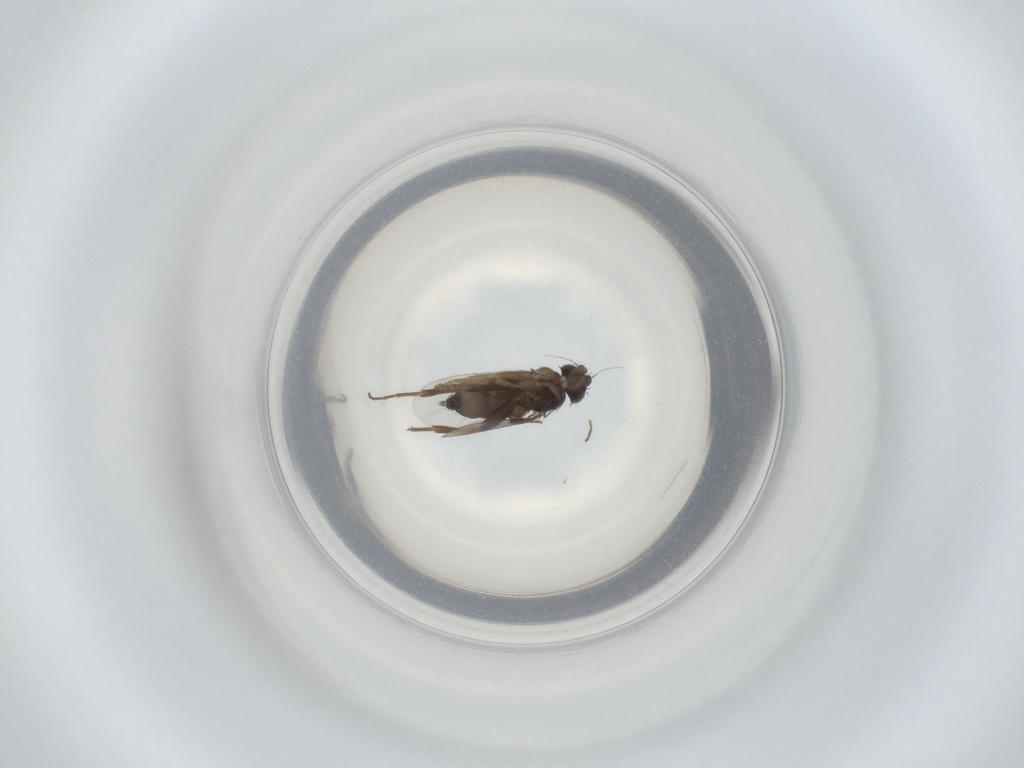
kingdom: Animalia
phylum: Arthropoda
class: Insecta
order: Diptera
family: Phoridae
